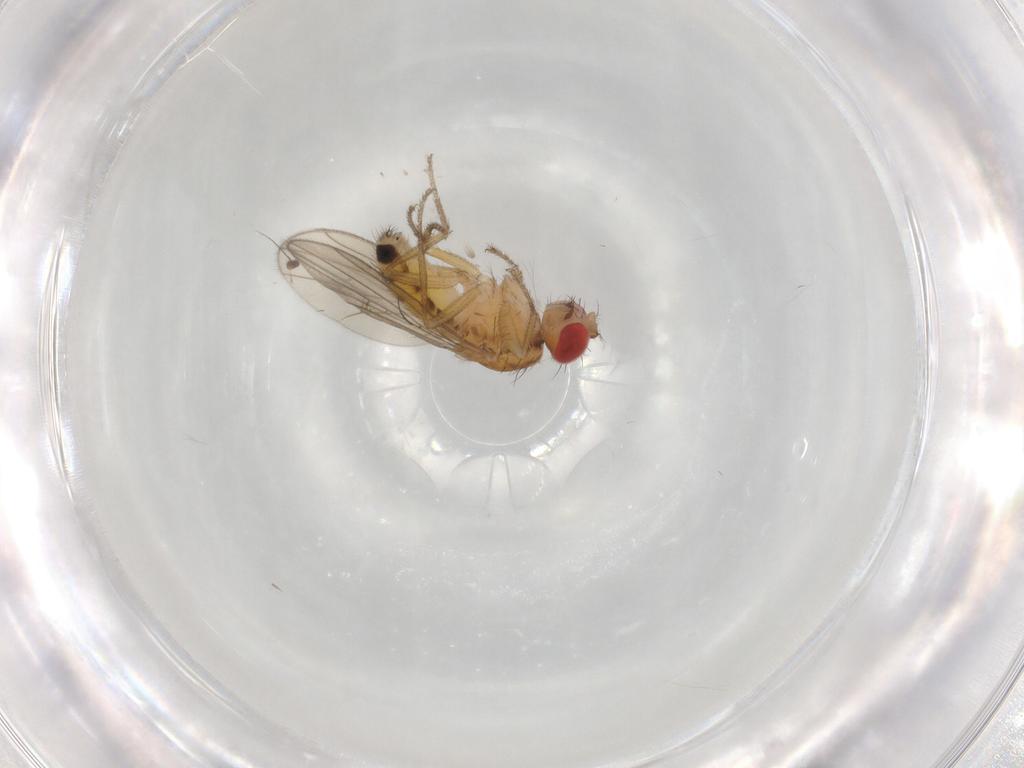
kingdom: Animalia
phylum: Arthropoda
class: Insecta
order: Diptera
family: Drosophilidae
